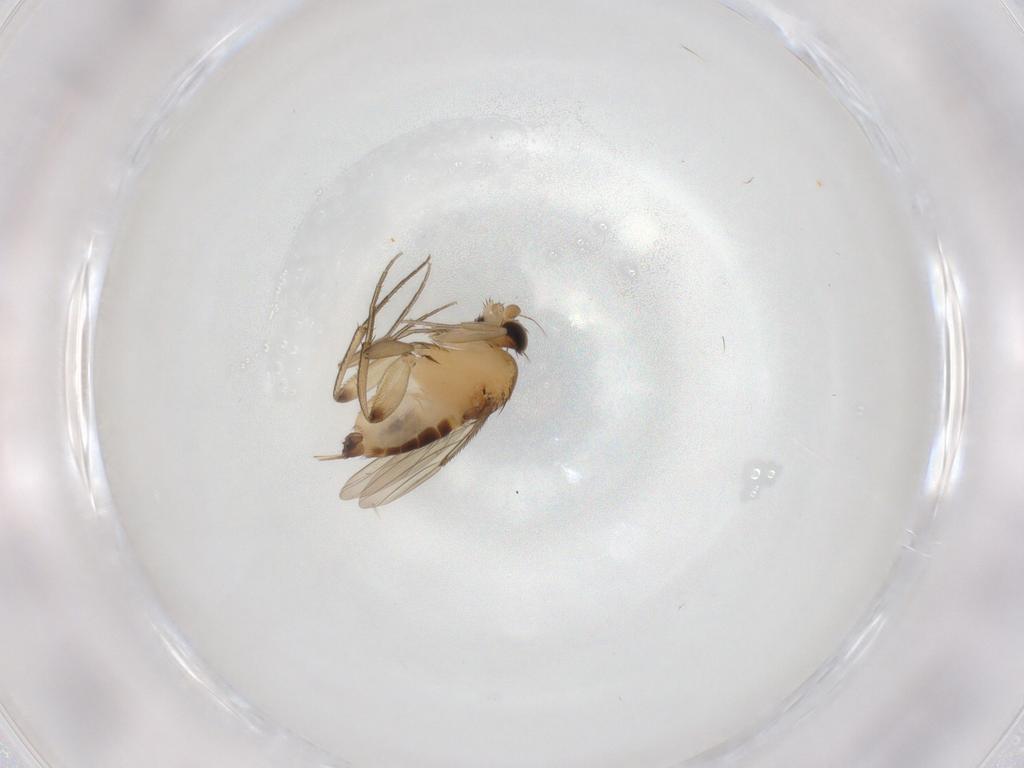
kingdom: Animalia
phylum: Arthropoda
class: Insecta
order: Diptera
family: Phoridae
